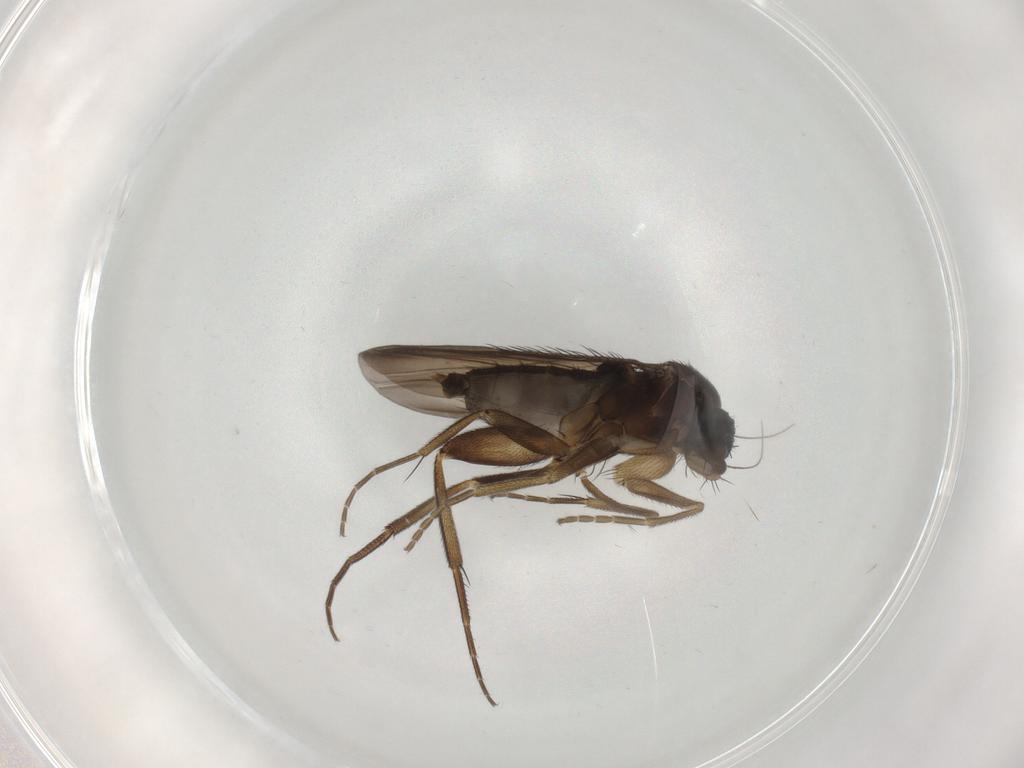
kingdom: Animalia
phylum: Arthropoda
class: Insecta
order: Diptera
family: Phoridae
